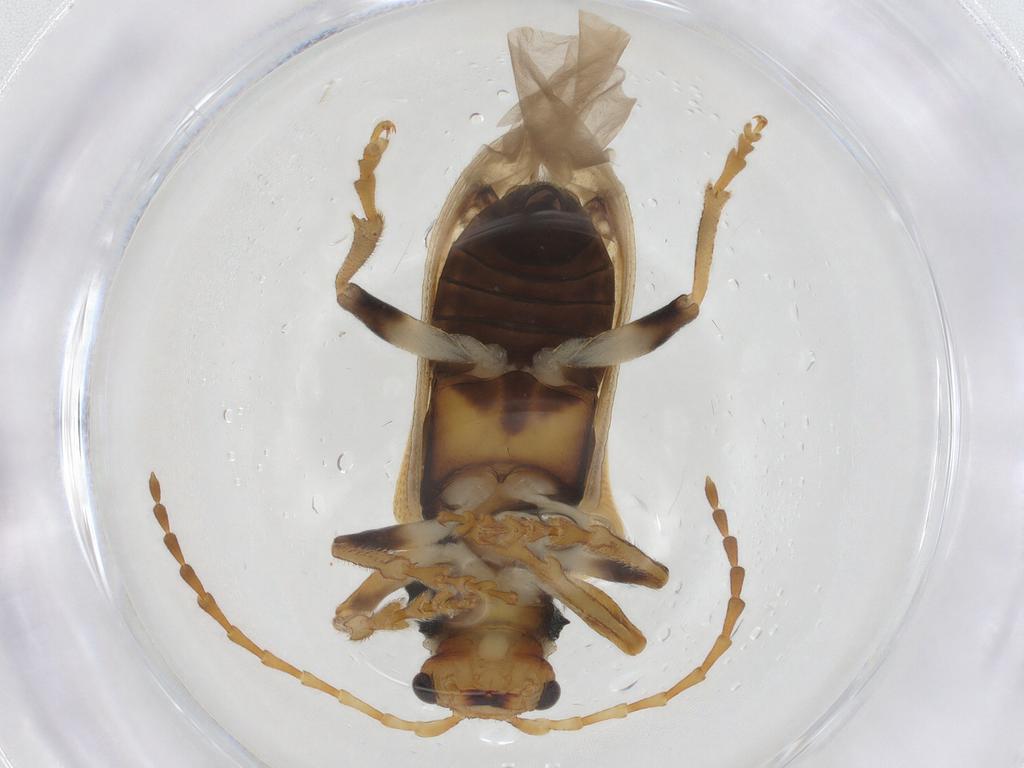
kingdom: Animalia
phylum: Arthropoda
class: Insecta
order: Coleoptera
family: Chrysomelidae
